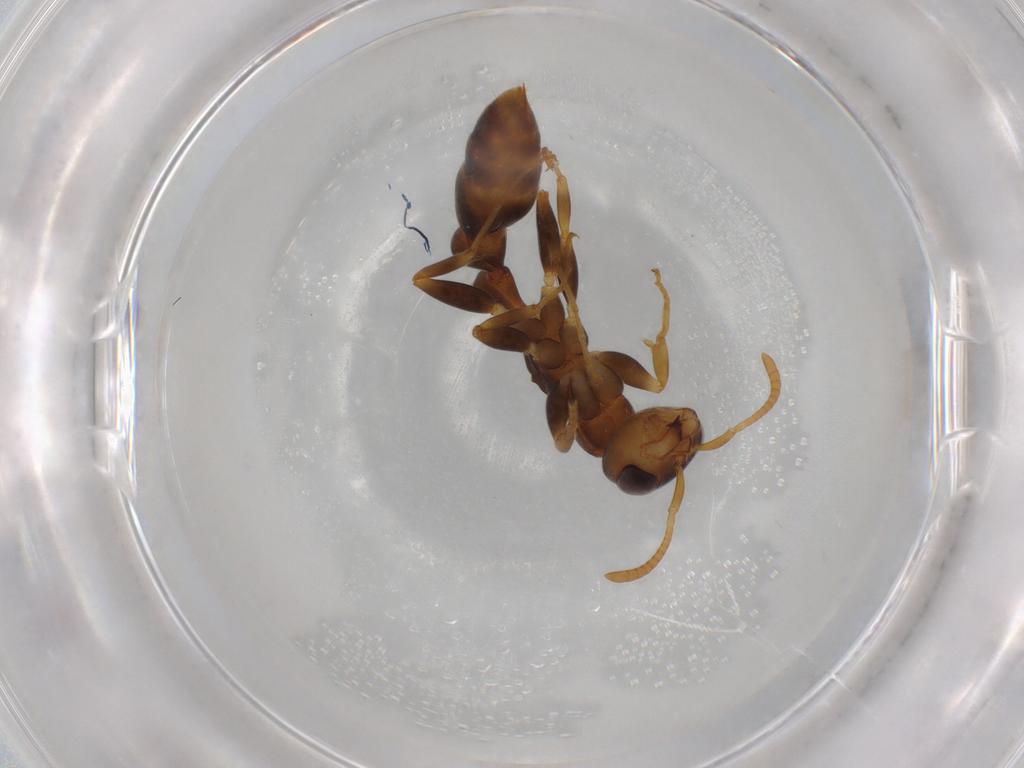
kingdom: Animalia
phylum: Arthropoda
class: Insecta
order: Hymenoptera
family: Formicidae
